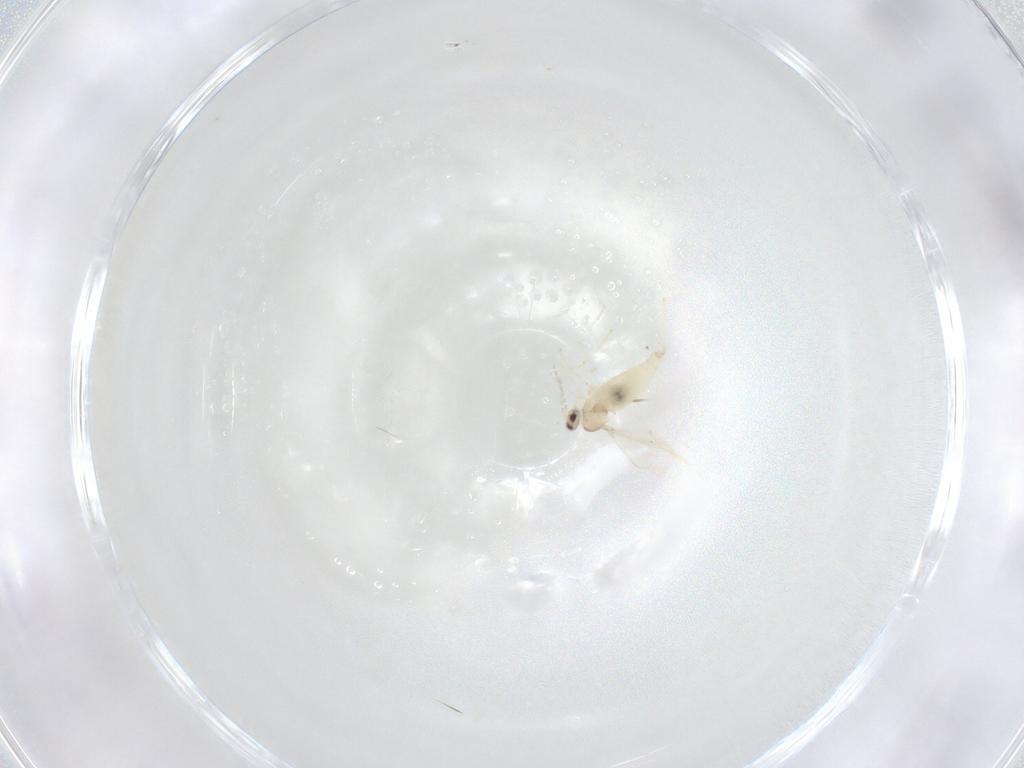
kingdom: Animalia
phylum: Arthropoda
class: Insecta
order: Diptera
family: Cecidomyiidae
